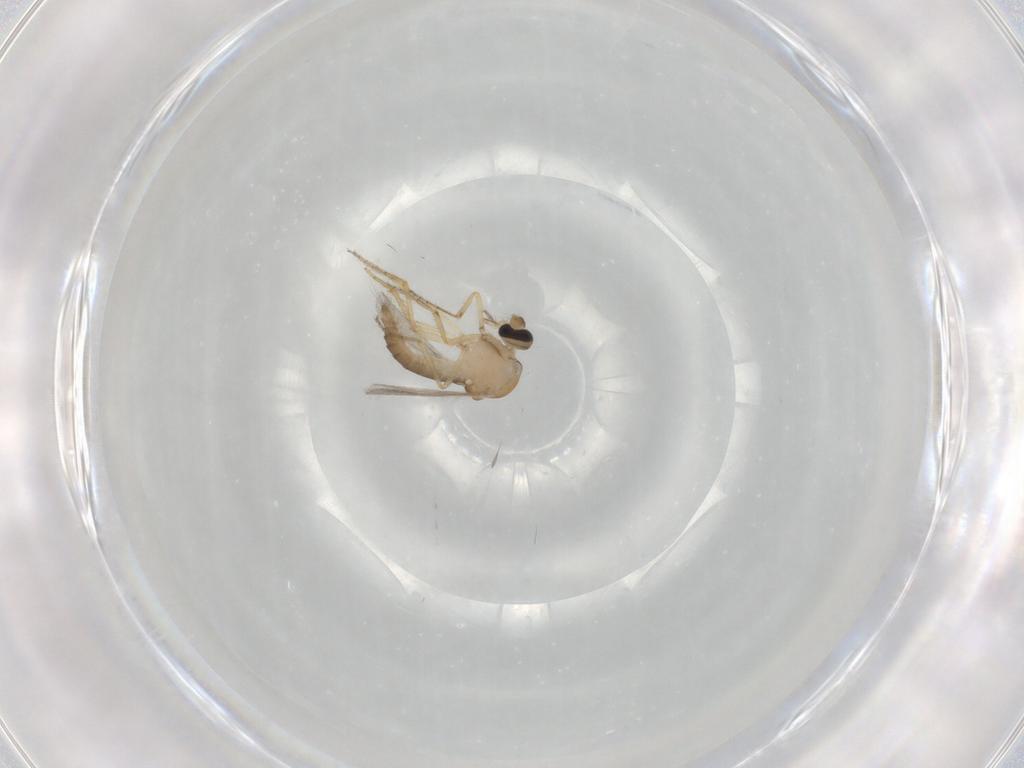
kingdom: Animalia
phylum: Arthropoda
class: Insecta
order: Diptera
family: Ceratopogonidae
